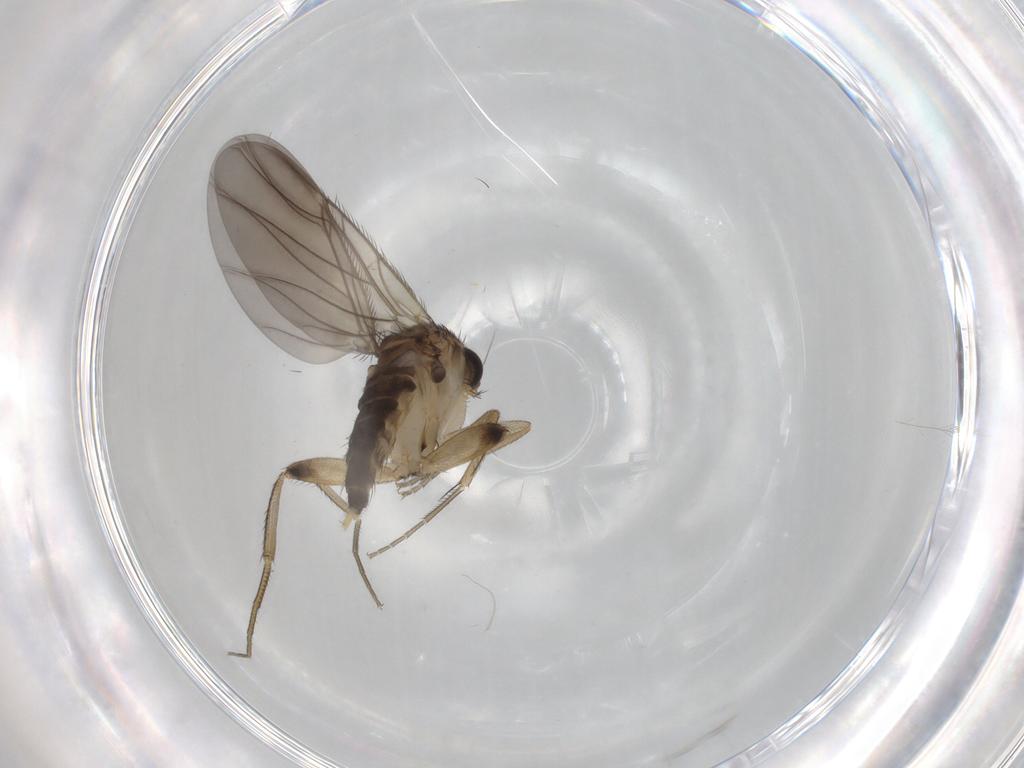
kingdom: Animalia
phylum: Arthropoda
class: Insecta
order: Diptera
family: Phoridae
